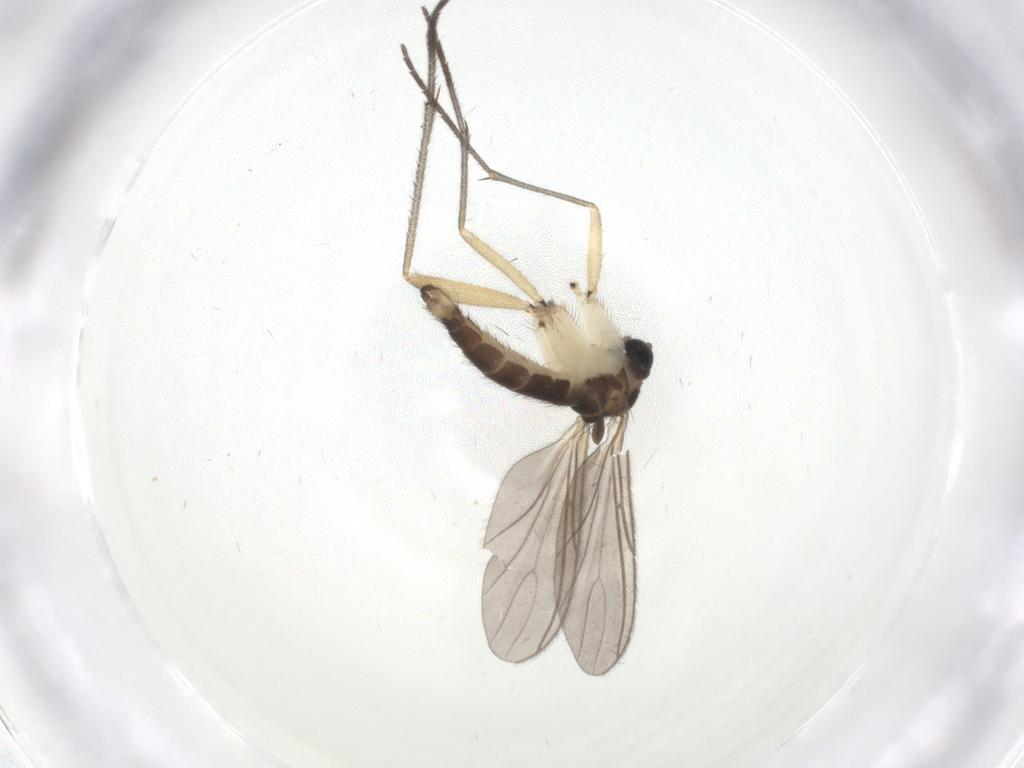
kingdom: Animalia
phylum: Arthropoda
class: Insecta
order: Diptera
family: Sciaridae
